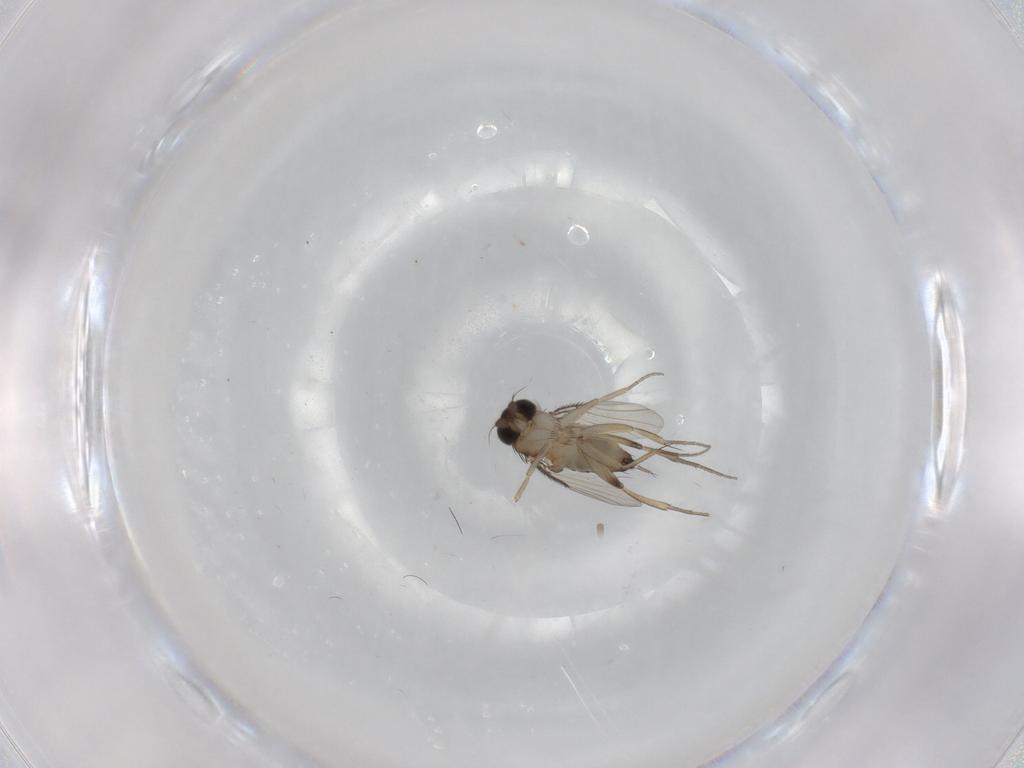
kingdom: Animalia
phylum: Arthropoda
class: Insecta
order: Diptera
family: Phoridae
